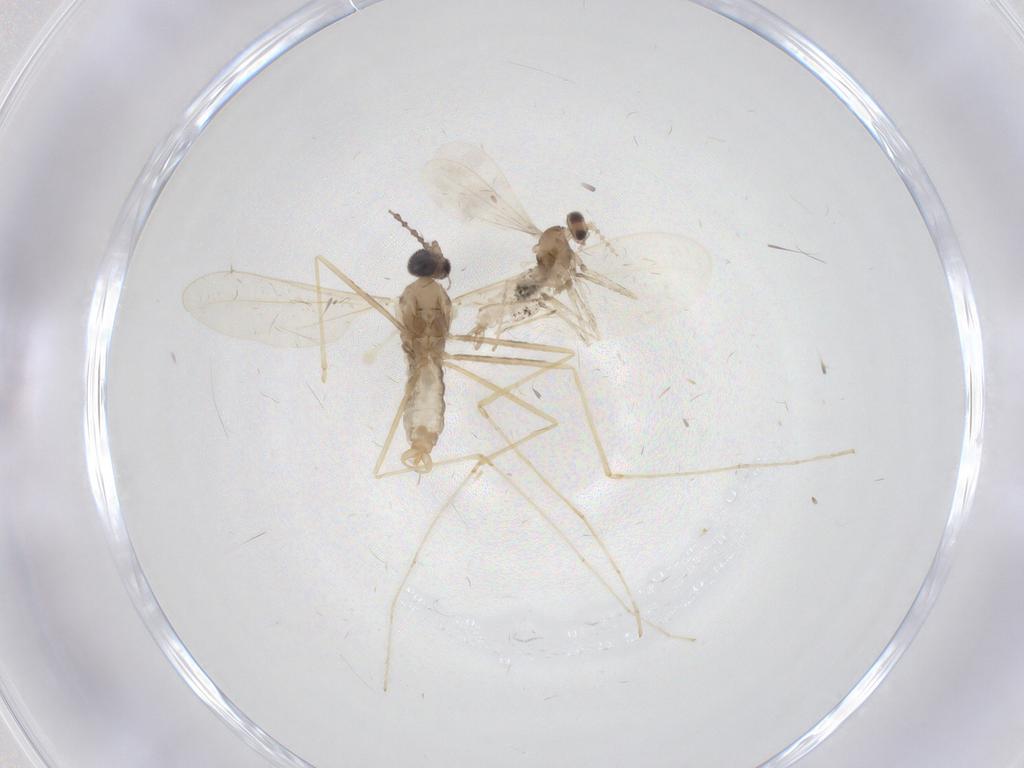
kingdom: Animalia
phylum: Arthropoda
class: Insecta
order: Diptera
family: Cecidomyiidae
